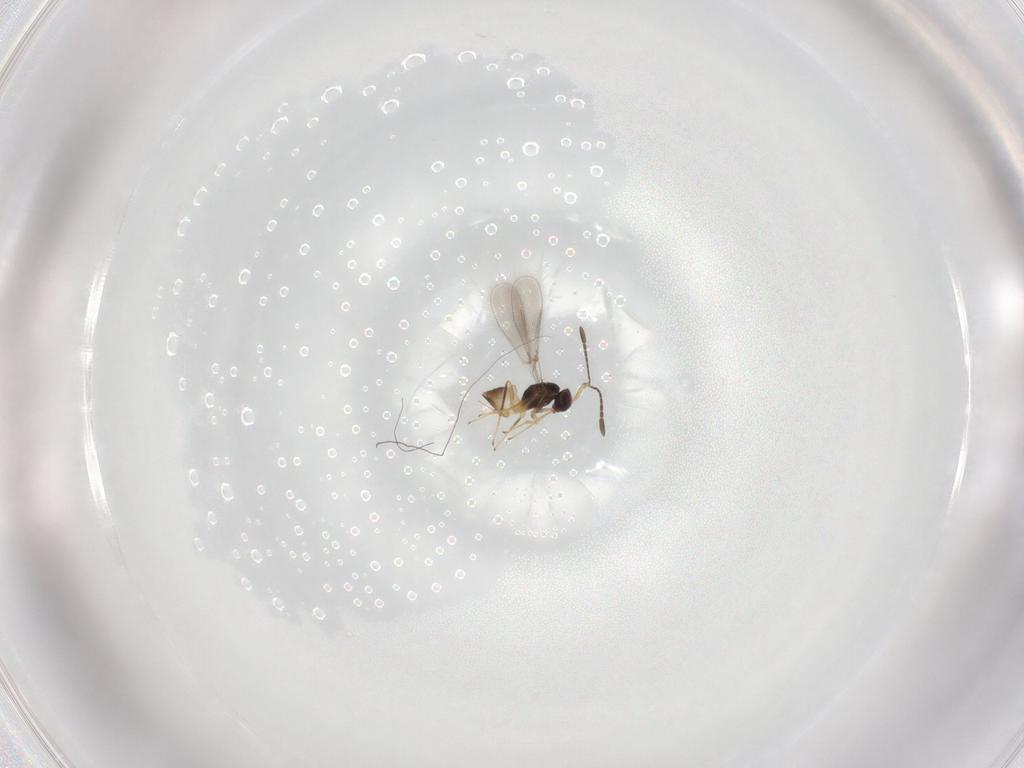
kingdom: Animalia
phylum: Arthropoda
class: Insecta
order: Hymenoptera
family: Mymaridae
